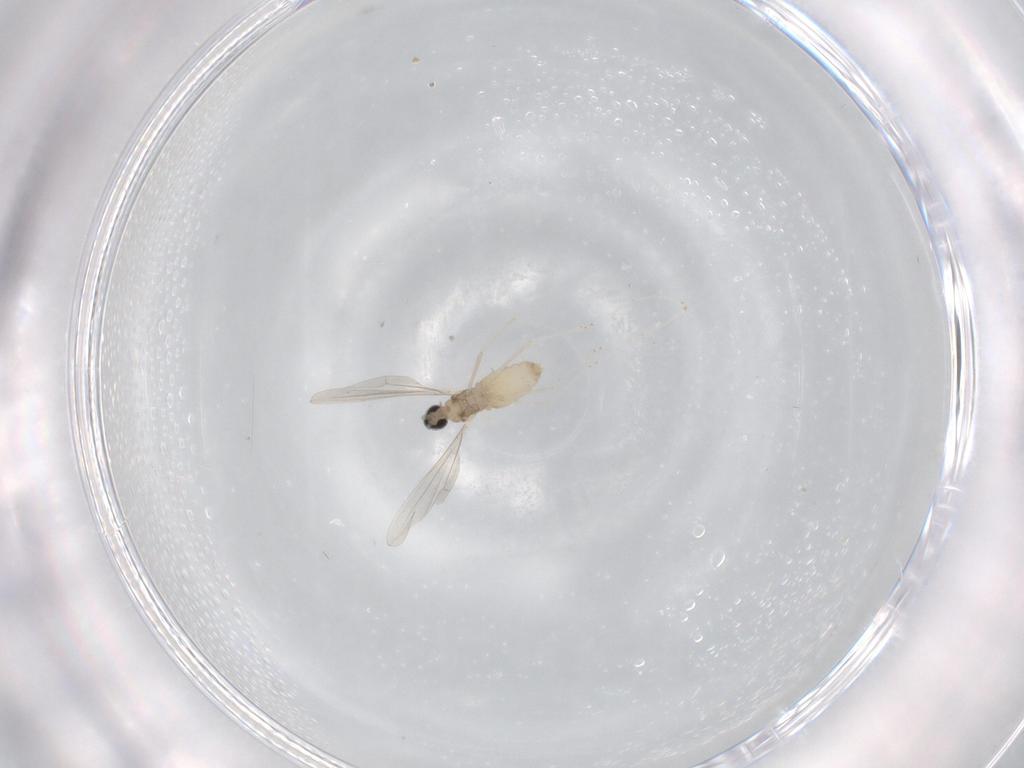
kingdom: Animalia
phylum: Arthropoda
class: Insecta
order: Diptera
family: Cecidomyiidae
